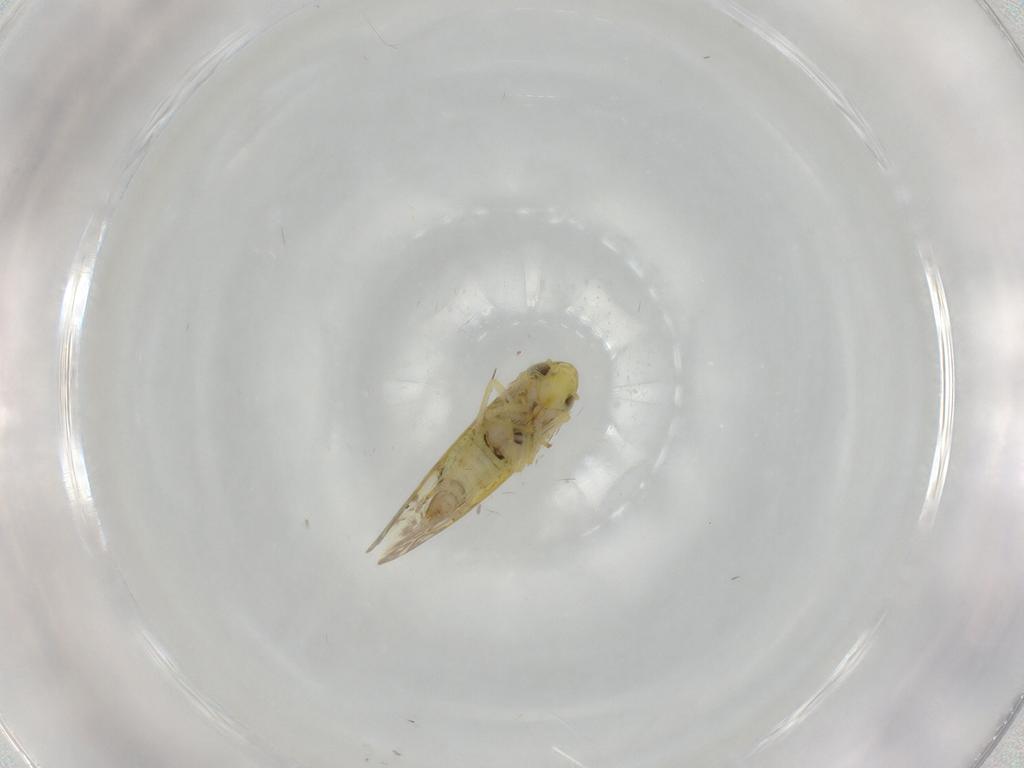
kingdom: Animalia
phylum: Arthropoda
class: Insecta
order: Hemiptera
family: Cicadellidae
